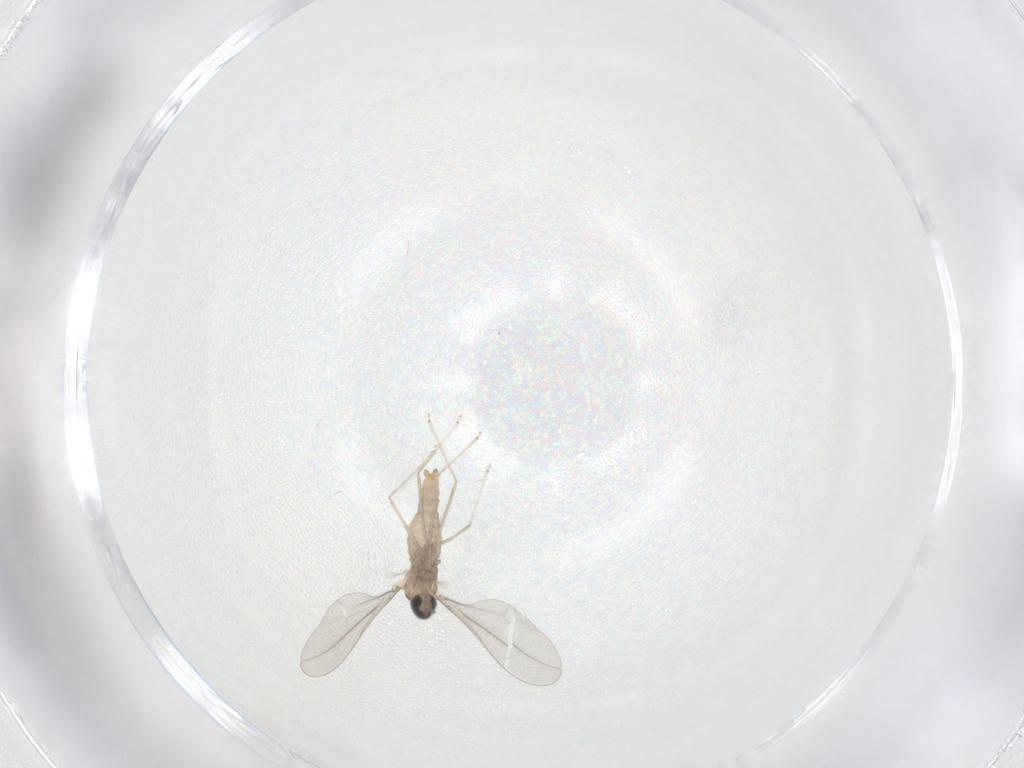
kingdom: Animalia
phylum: Arthropoda
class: Insecta
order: Diptera
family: Cecidomyiidae
